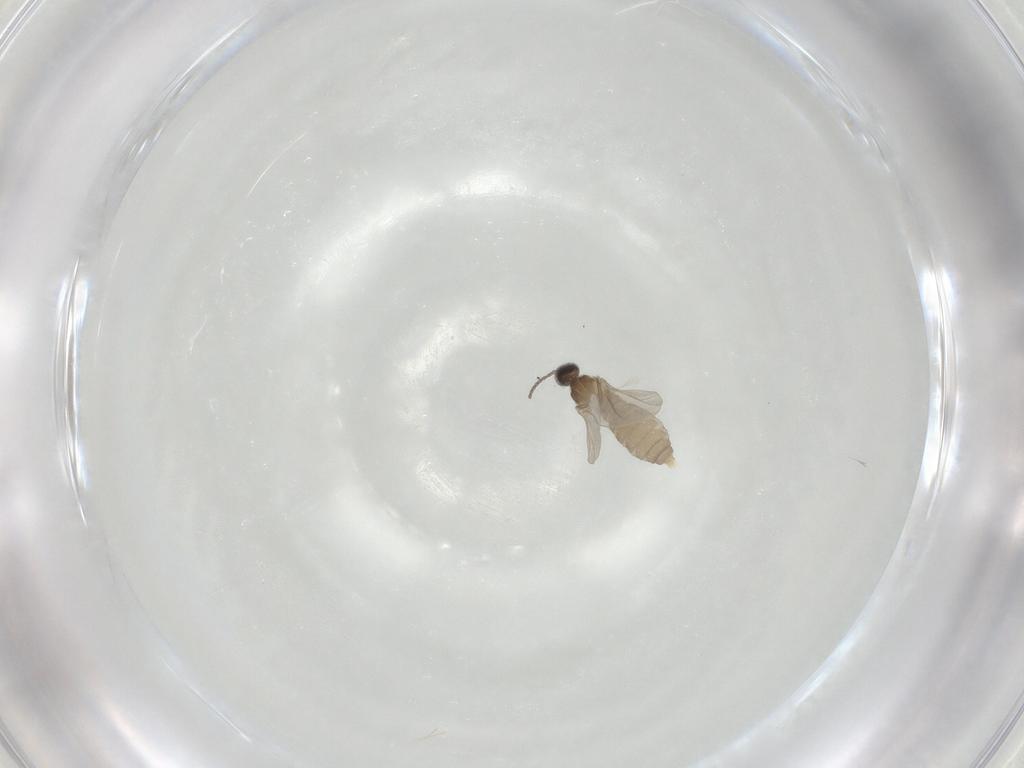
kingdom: Animalia
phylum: Arthropoda
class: Insecta
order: Diptera
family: Cecidomyiidae
